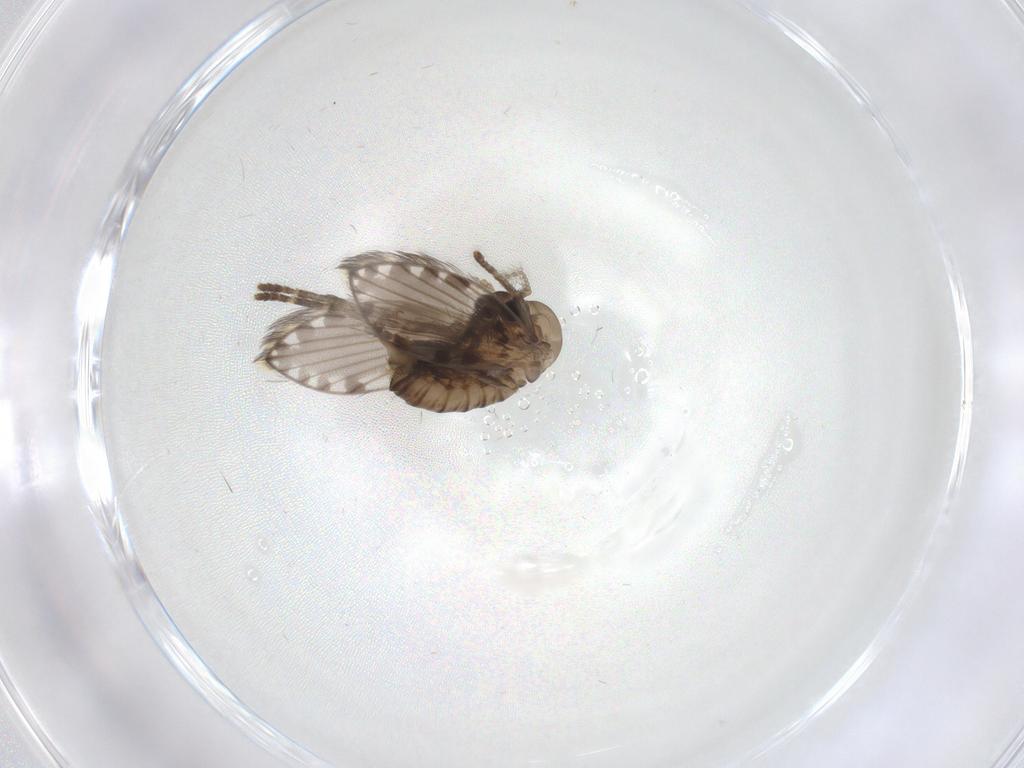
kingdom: Animalia
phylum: Arthropoda
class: Insecta
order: Diptera
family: Psychodidae
